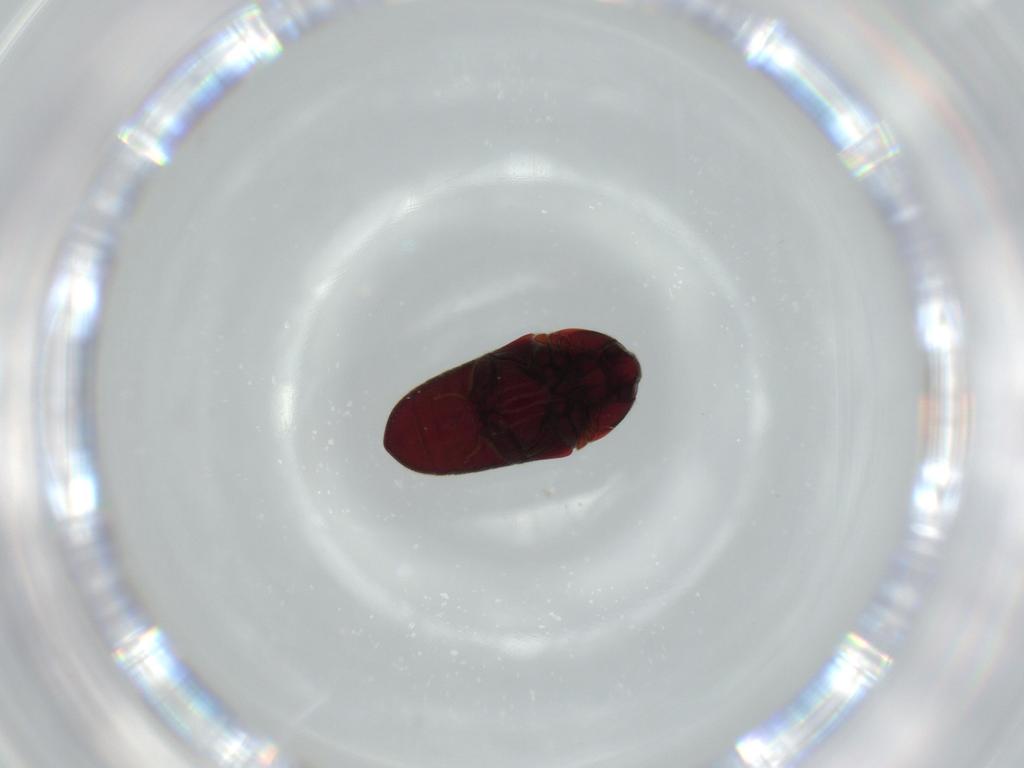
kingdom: Animalia
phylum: Arthropoda
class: Insecta
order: Coleoptera
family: Throscidae
